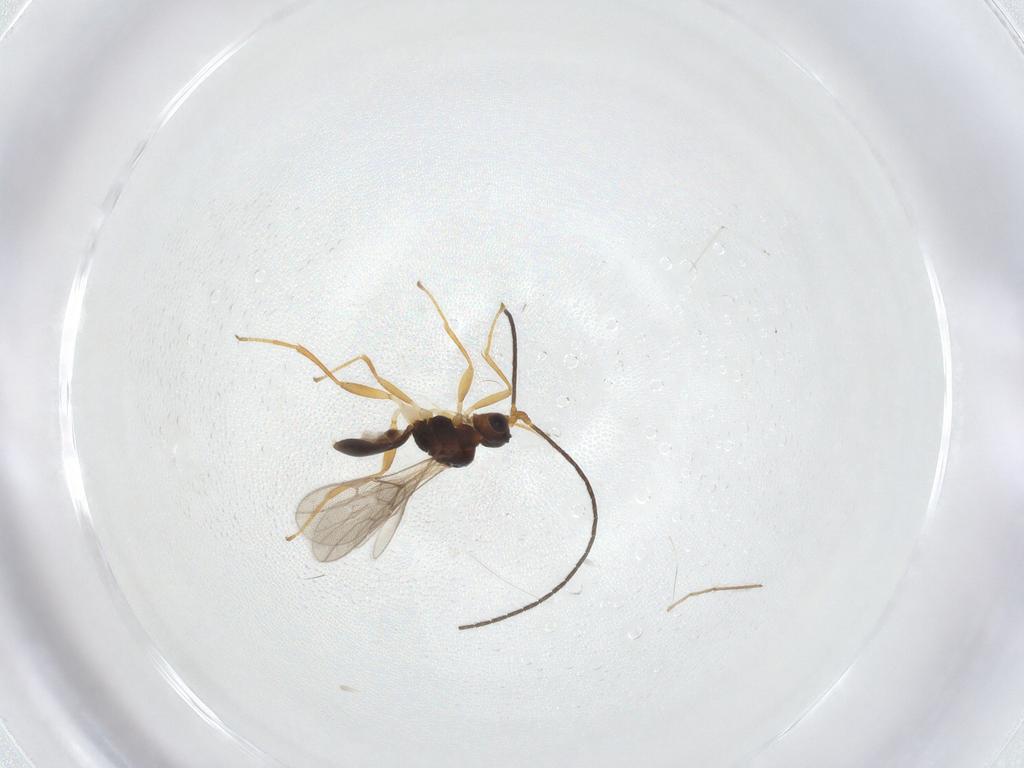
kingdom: Animalia
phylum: Arthropoda
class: Insecta
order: Hymenoptera
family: Braconidae
